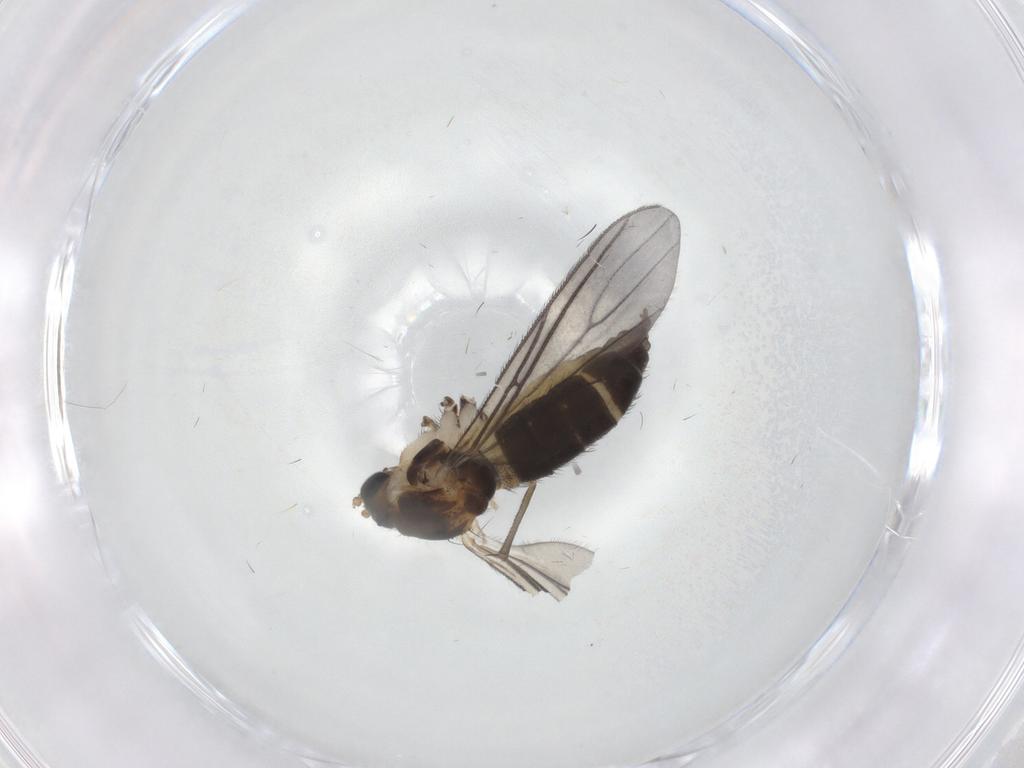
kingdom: Animalia
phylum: Arthropoda
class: Insecta
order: Diptera
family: Sciaridae
